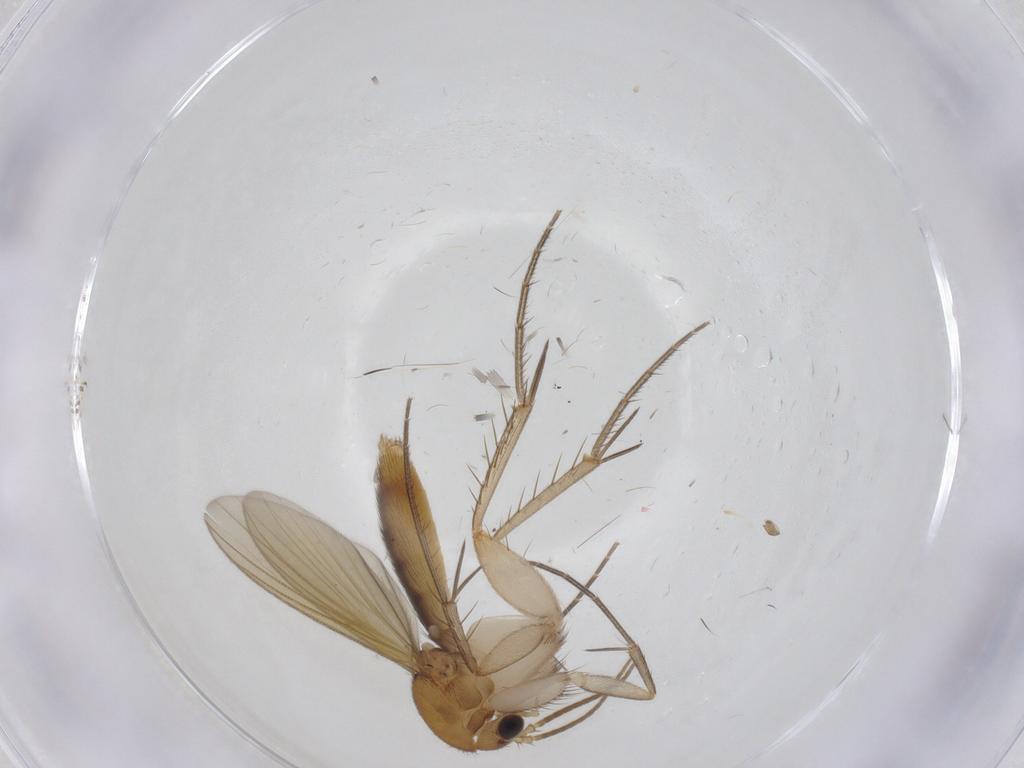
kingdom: Animalia
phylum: Arthropoda
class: Insecta
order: Diptera
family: Mycetophilidae
